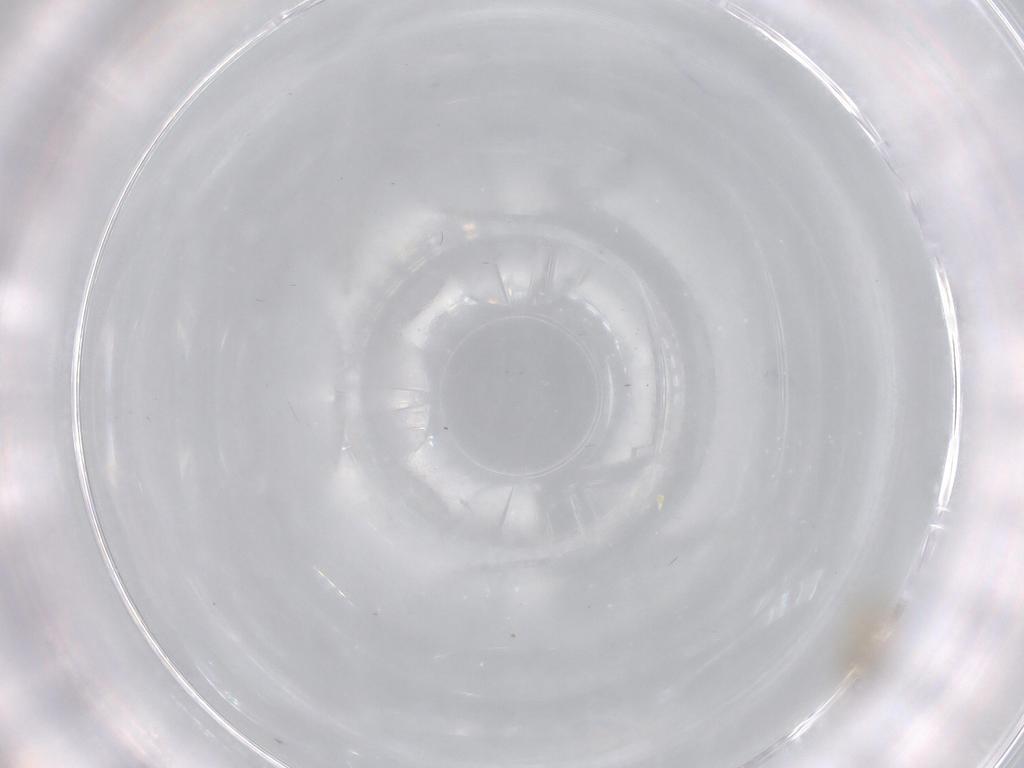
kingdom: Animalia
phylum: Arthropoda
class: Insecta
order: Diptera
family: Cecidomyiidae
